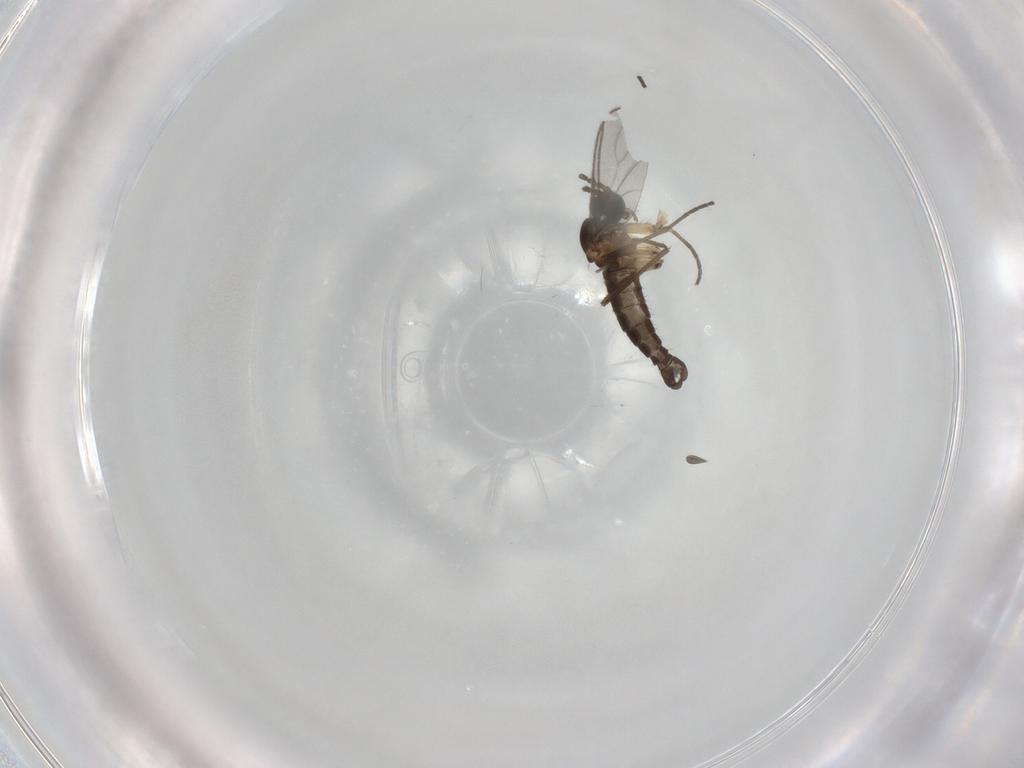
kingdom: Animalia
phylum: Arthropoda
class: Insecta
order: Diptera
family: Sciaridae
